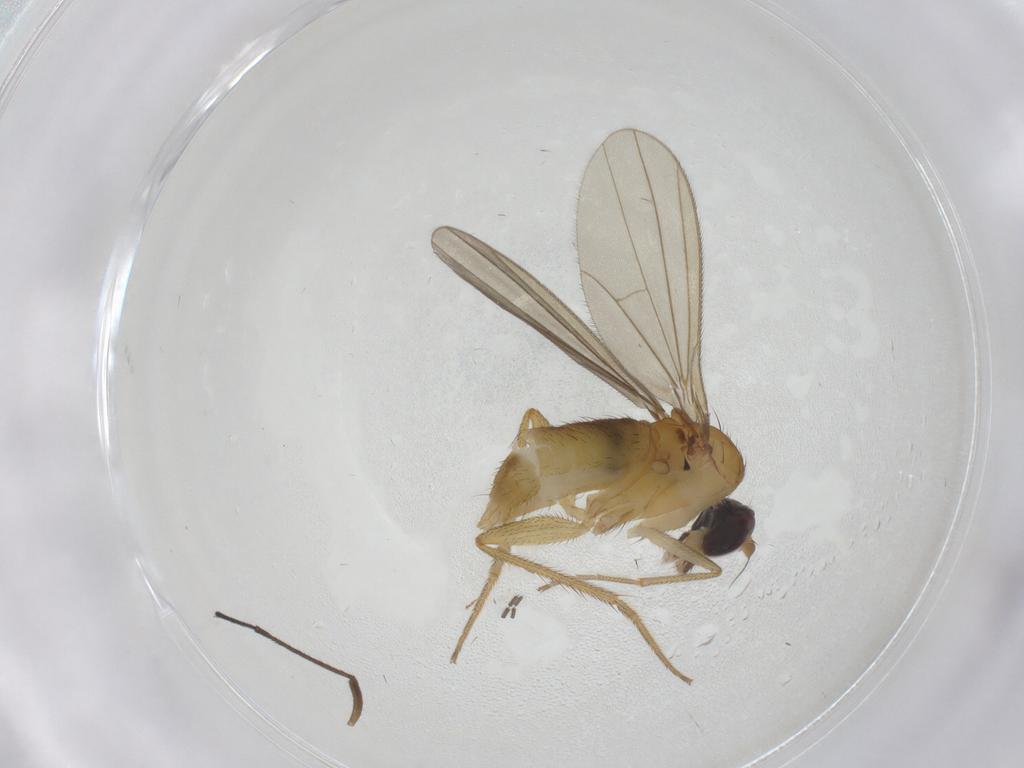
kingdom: Animalia
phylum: Arthropoda
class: Insecta
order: Diptera
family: Dolichopodidae
